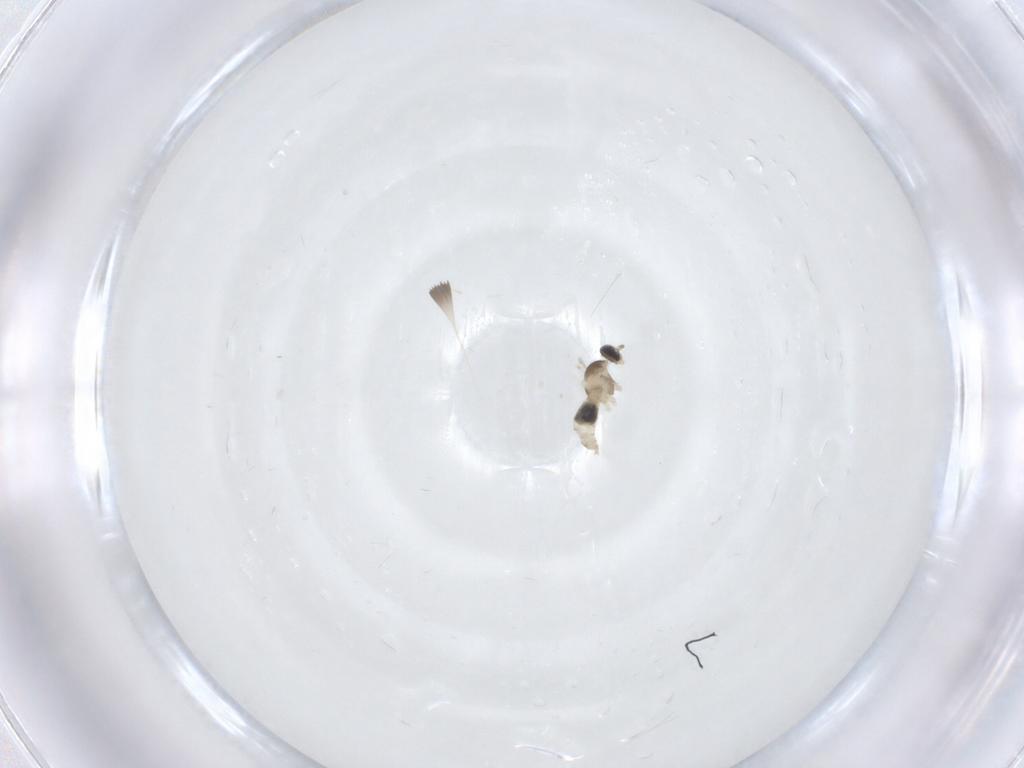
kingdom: Animalia
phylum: Arthropoda
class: Insecta
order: Diptera
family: Cecidomyiidae
